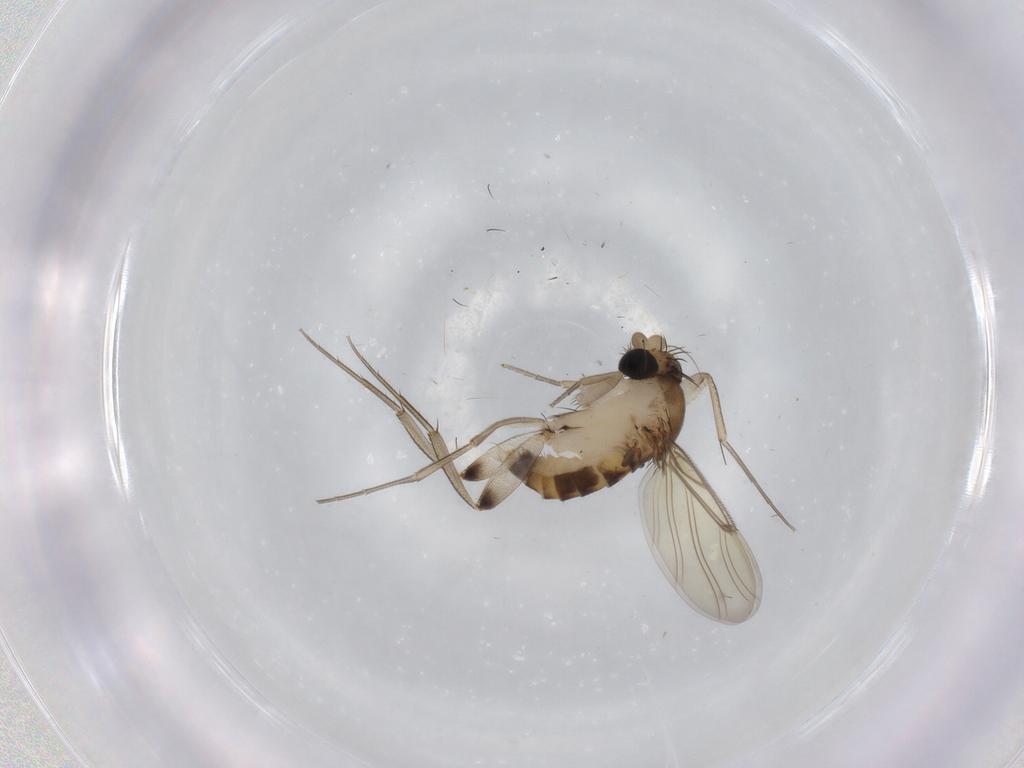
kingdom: Animalia
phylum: Arthropoda
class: Insecta
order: Diptera
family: Phoridae
